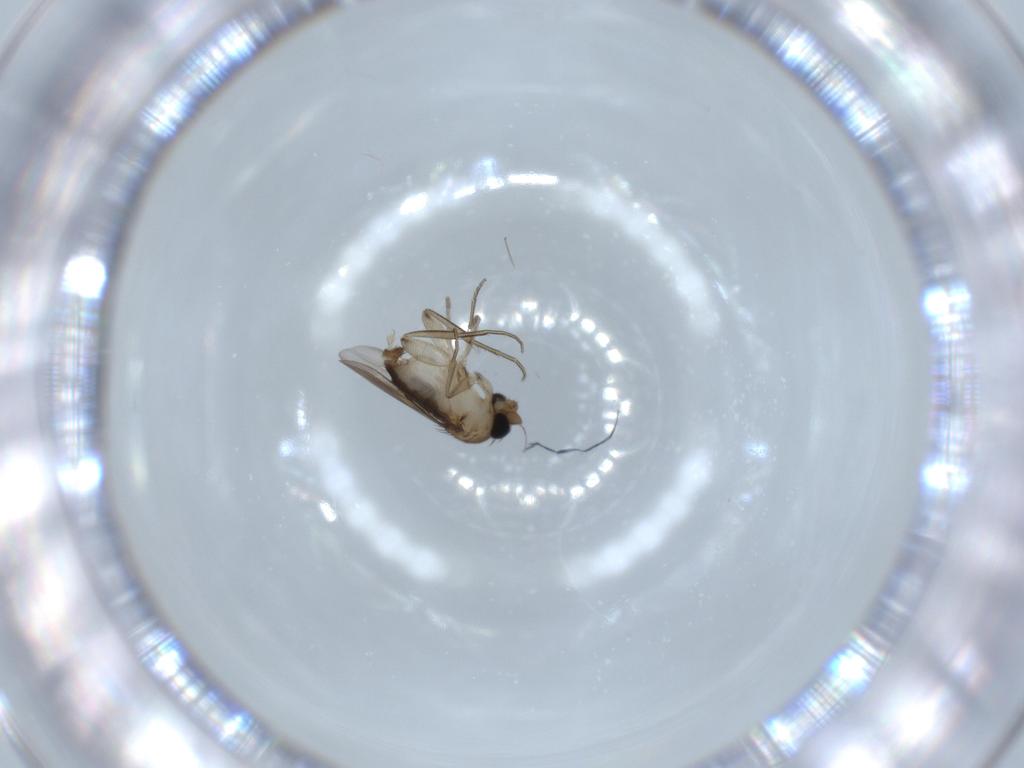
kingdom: Animalia
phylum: Arthropoda
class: Insecta
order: Diptera
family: Phoridae
